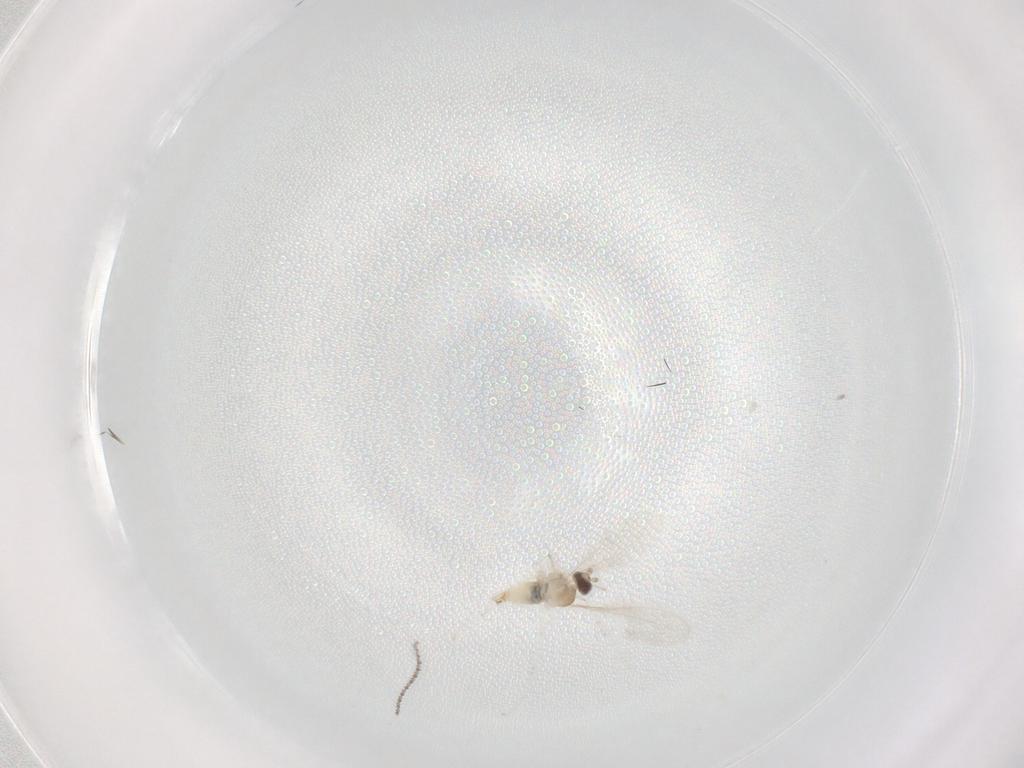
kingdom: Animalia
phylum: Arthropoda
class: Insecta
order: Diptera
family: Cecidomyiidae
